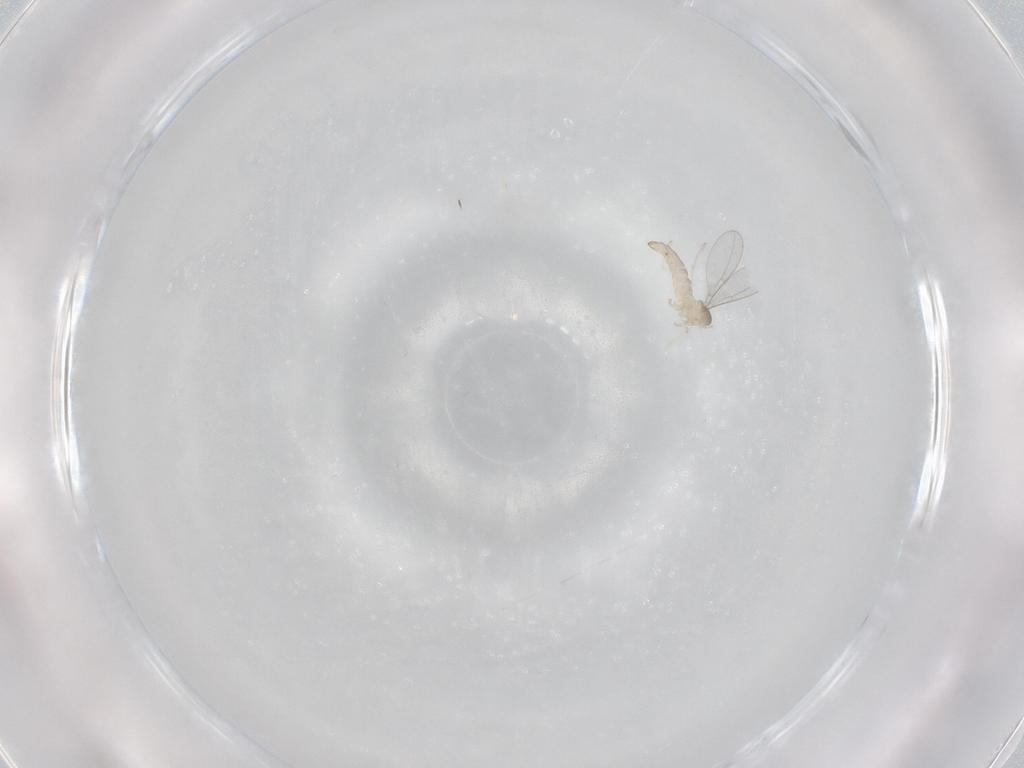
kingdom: Animalia
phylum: Arthropoda
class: Insecta
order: Diptera
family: Cecidomyiidae
